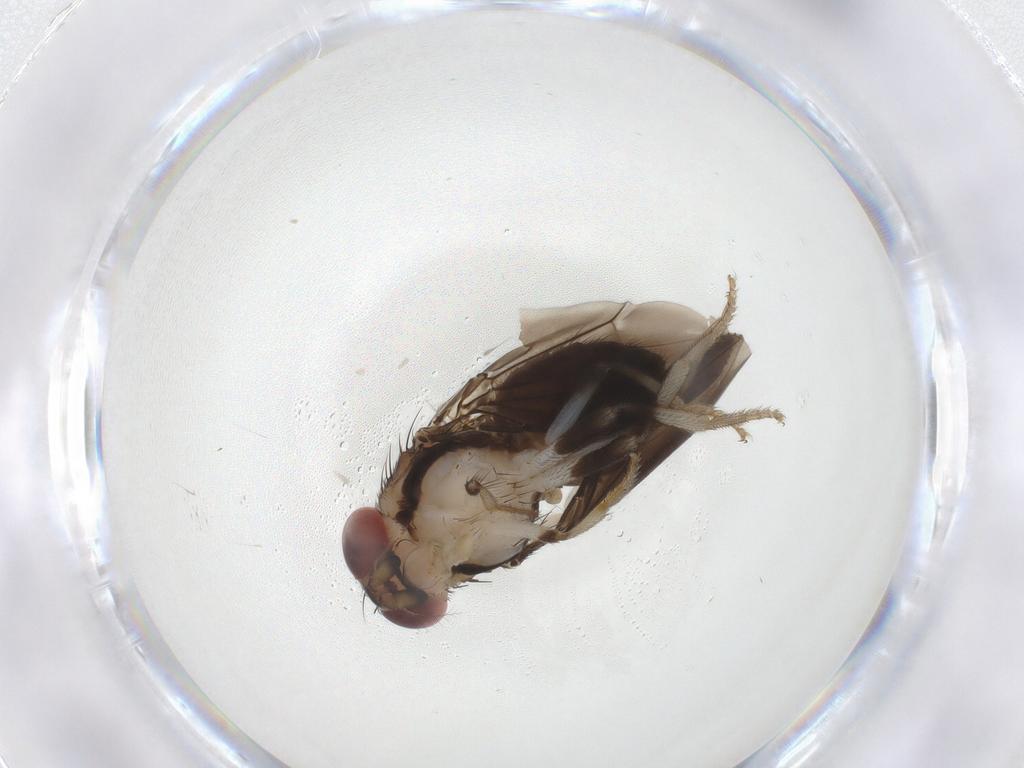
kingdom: Animalia
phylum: Arthropoda
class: Insecta
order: Diptera
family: Drosophilidae
